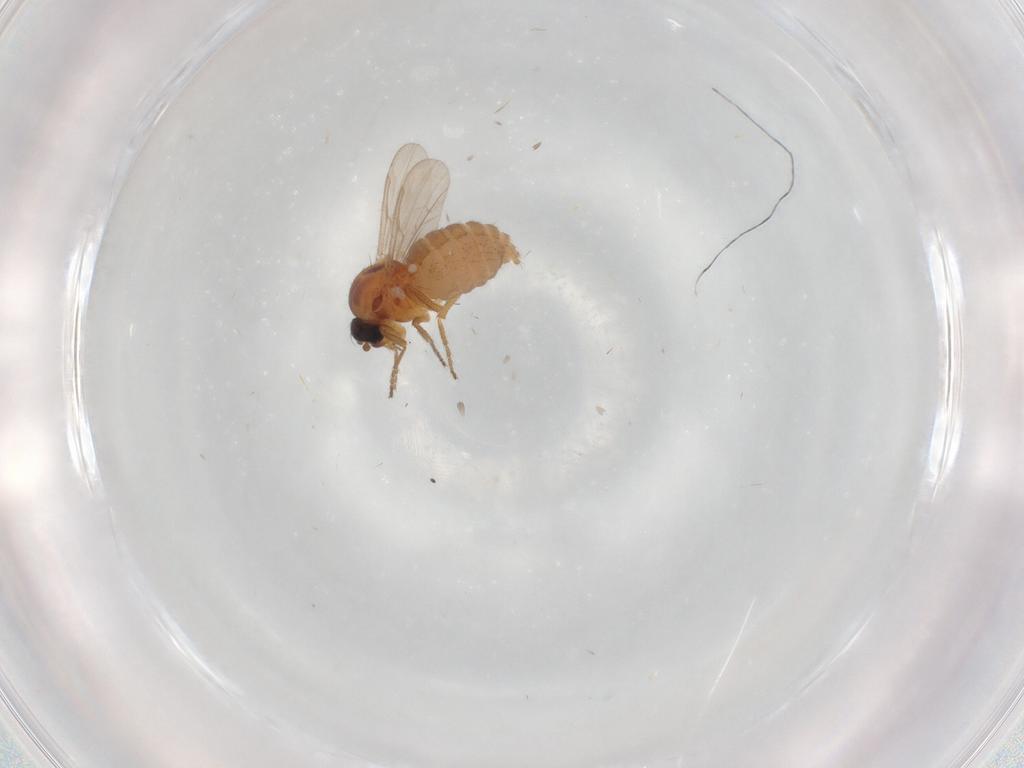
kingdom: Animalia
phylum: Arthropoda
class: Insecta
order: Diptera
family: Ceratopogonidae
